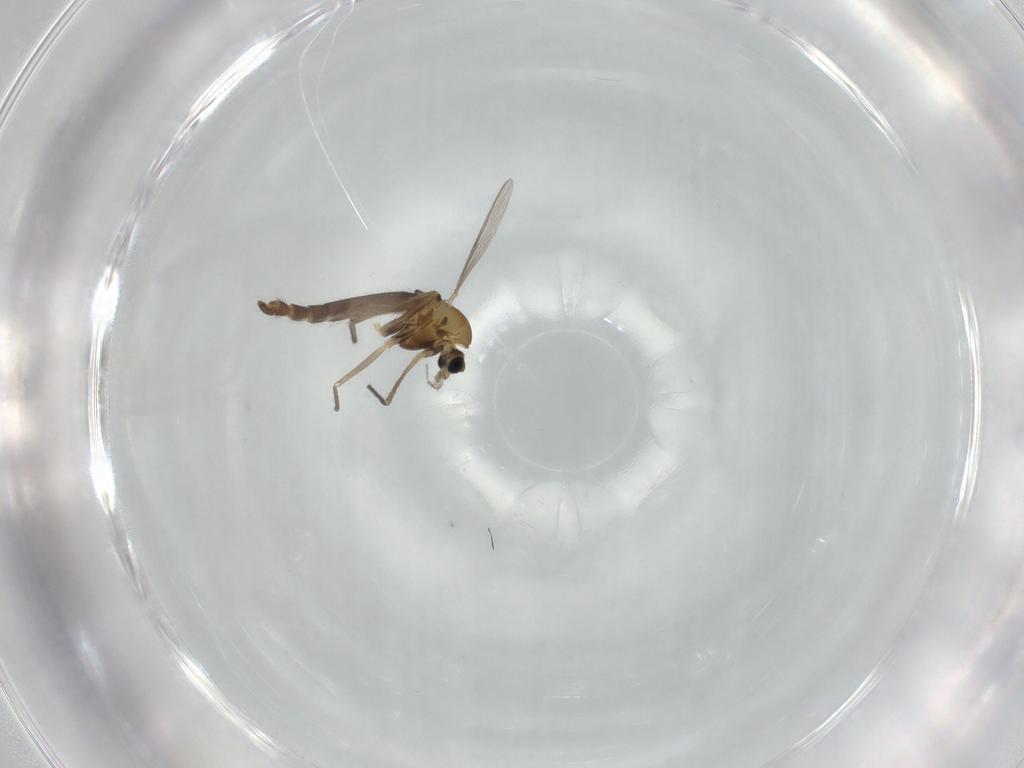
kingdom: Animalia
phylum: Arthropoda
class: Insecta
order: Diptera
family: Chironomidae
